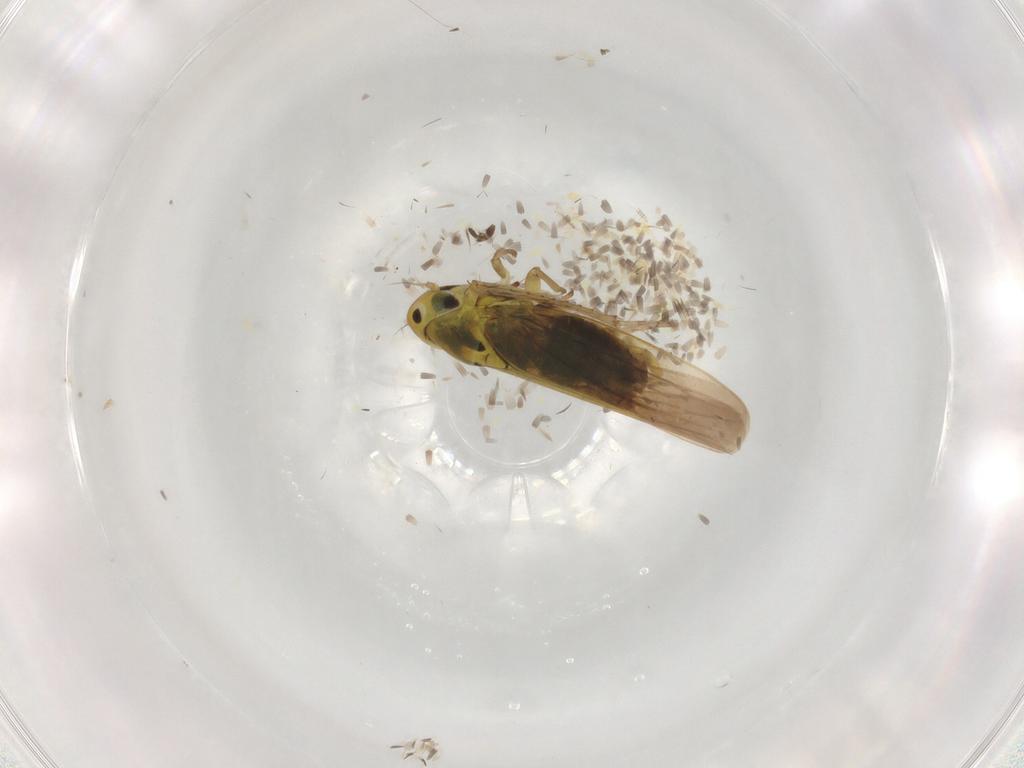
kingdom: Animalia
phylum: Arthropoda
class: Insecta
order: Hemiptera
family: Cicadellidae
